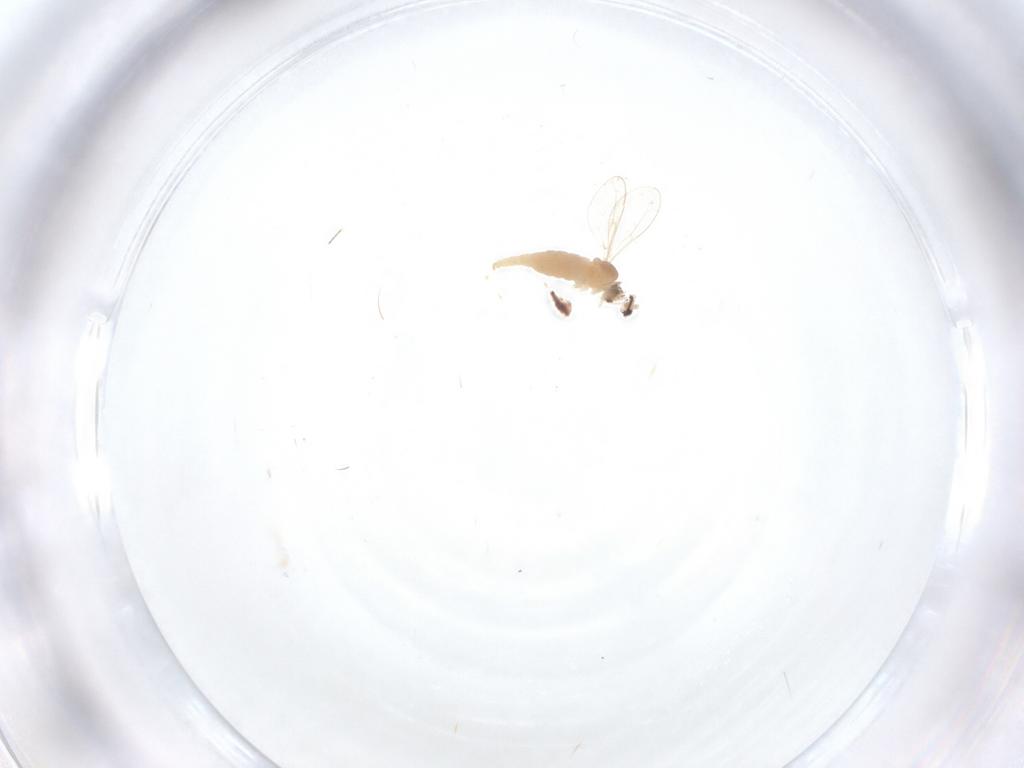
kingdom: Animalia
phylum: Arthropoda
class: Insecta
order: Diptera
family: Cecidomyiidae
